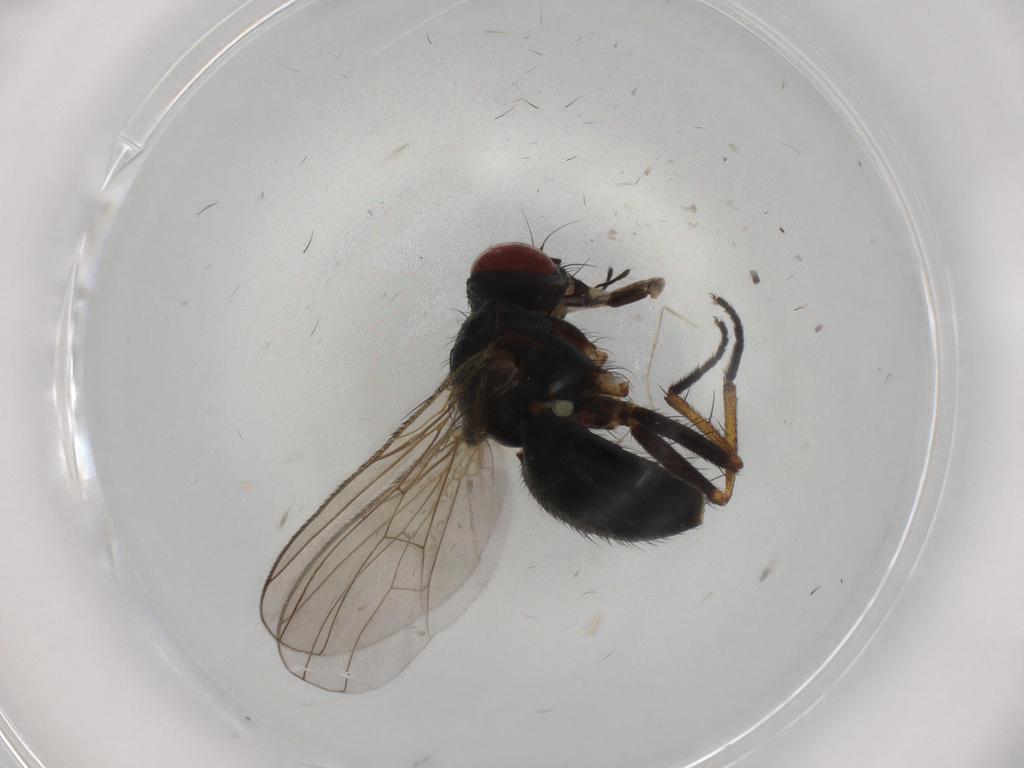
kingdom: Animalia
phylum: Arthropoda
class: Insecta
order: Diptera
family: Muscidae
